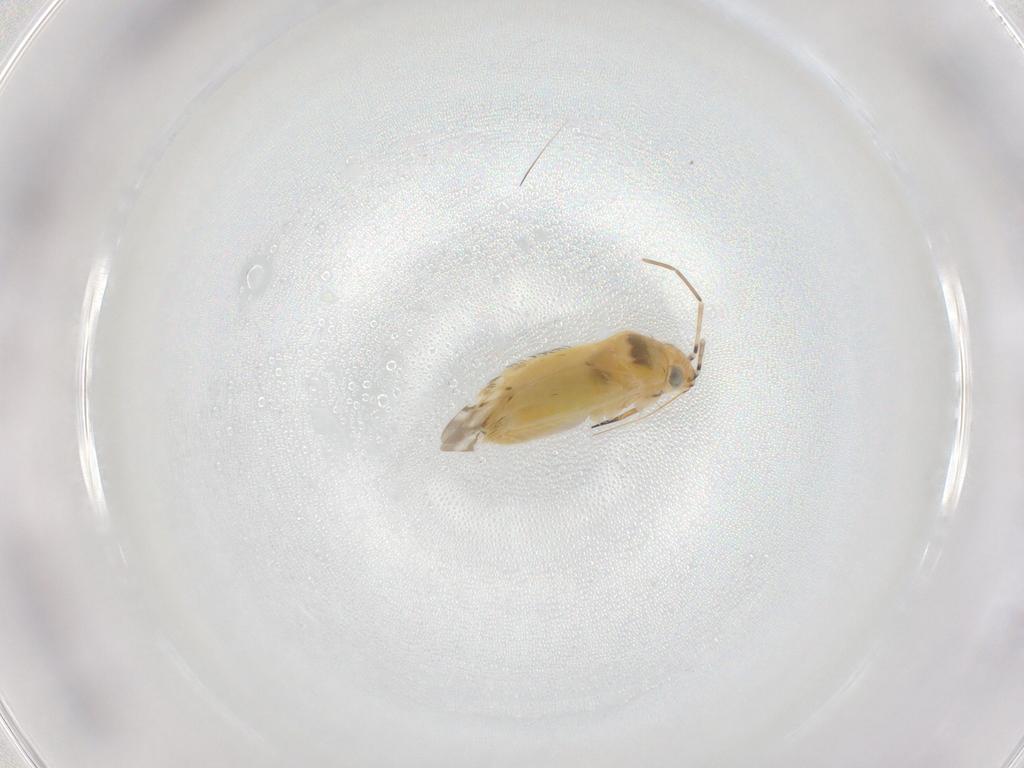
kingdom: Animalia
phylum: Arthropoda
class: Insecta
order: Hemiptera
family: Miridae
